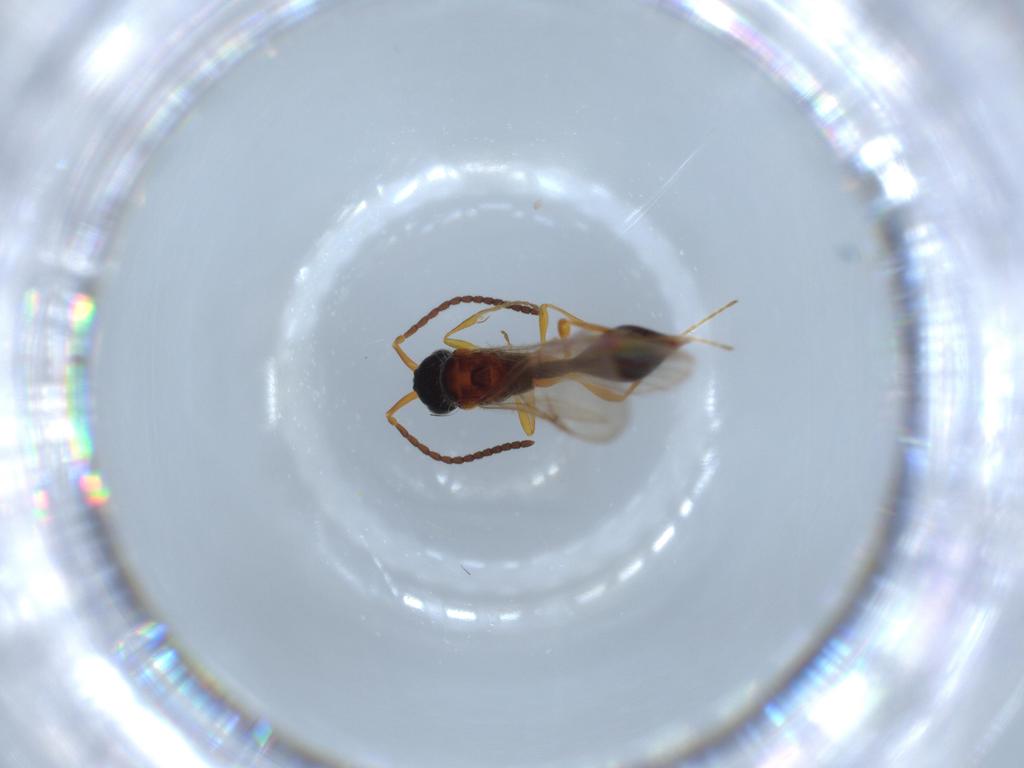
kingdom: Animalia
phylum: Arthropoda
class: Insecta
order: Hymenoptera
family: Diapriidae
